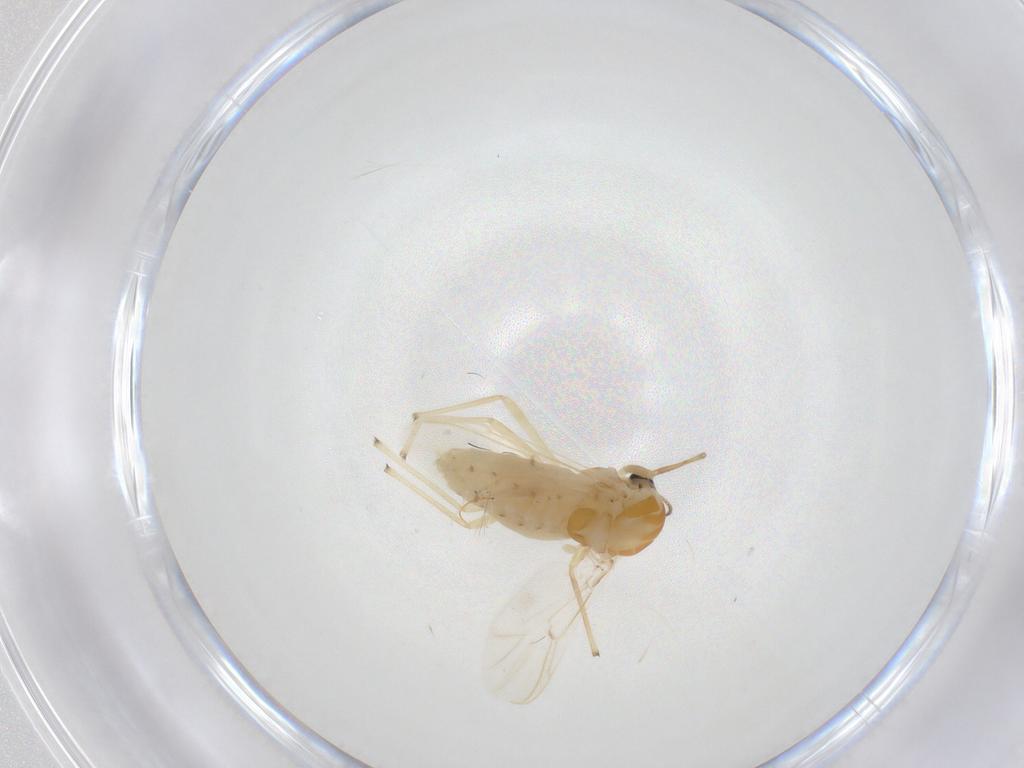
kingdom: Animalia
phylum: Arthropoda
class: Insecta
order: Diptera
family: Chironomidae
